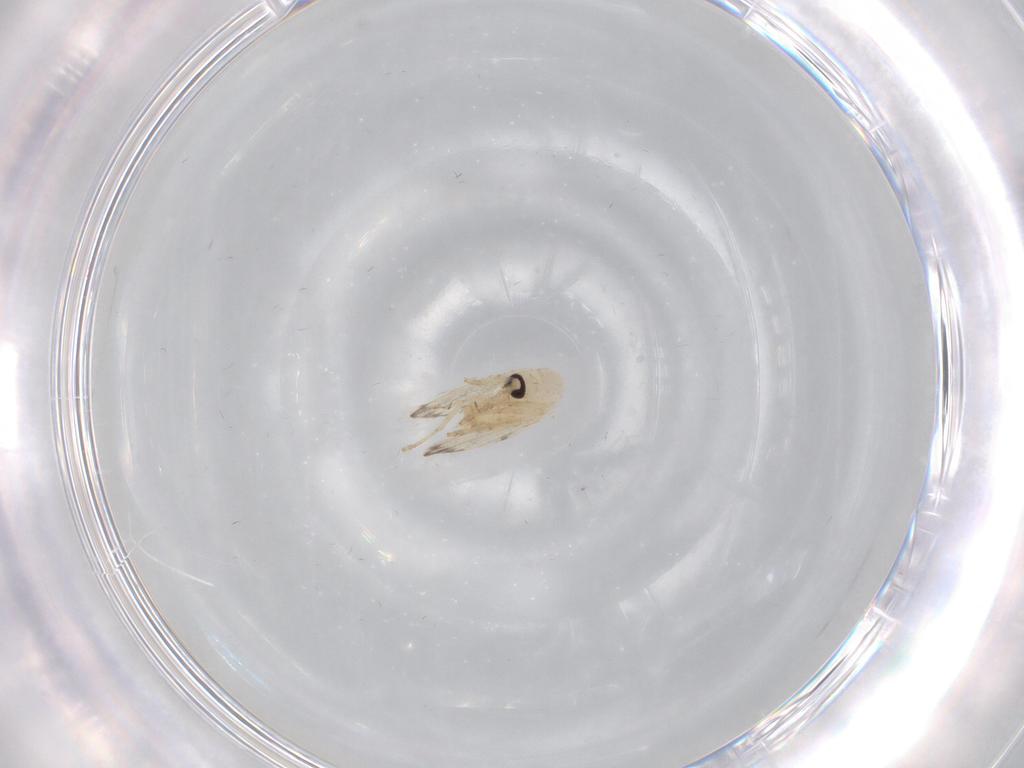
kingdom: Animalia
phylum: Arthropoda
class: Insecta
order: Diptera
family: Psychodidae
